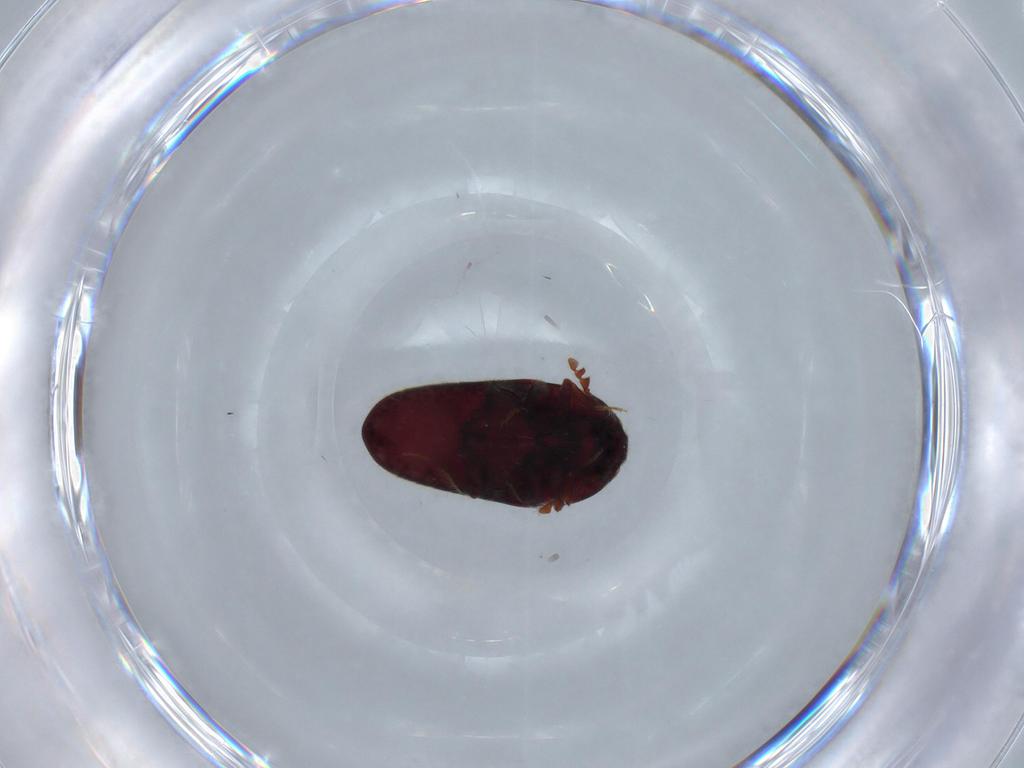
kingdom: Animalia
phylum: Arthropoda
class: Insecta
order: Coleoptera
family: Throscidae
